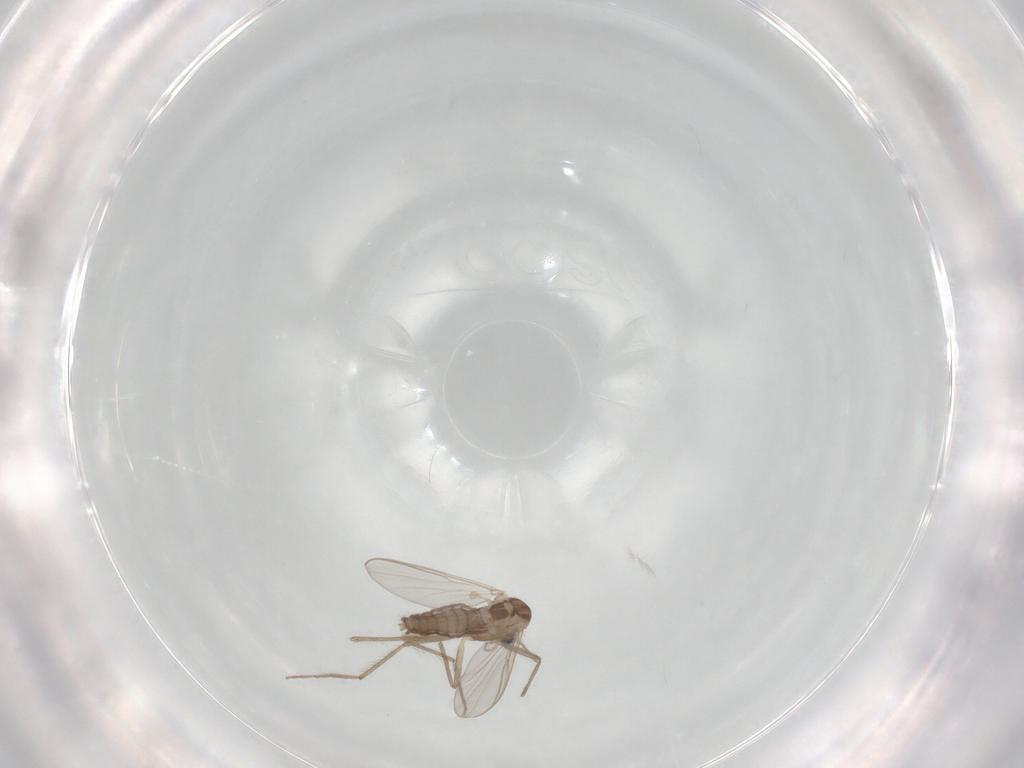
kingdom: Animalia
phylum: Arthropoda
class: Insecta
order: Diptera
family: Chironomidae
